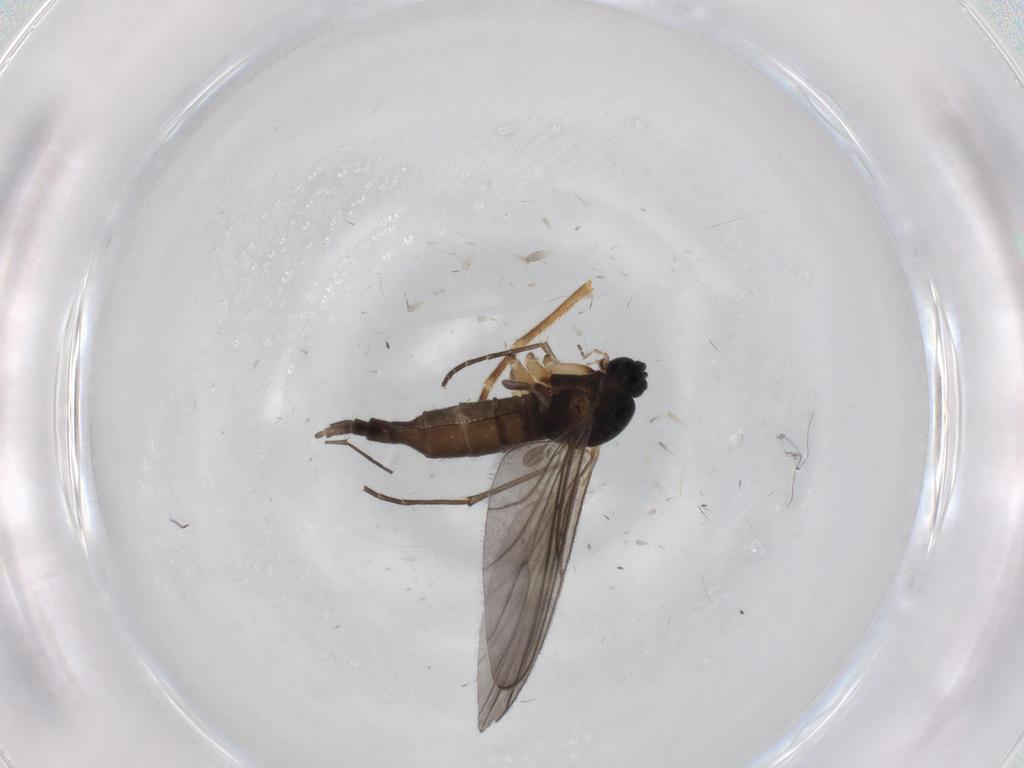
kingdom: Animalia
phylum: Arthropoda
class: Insecta
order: Diptera
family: Sciaridae
